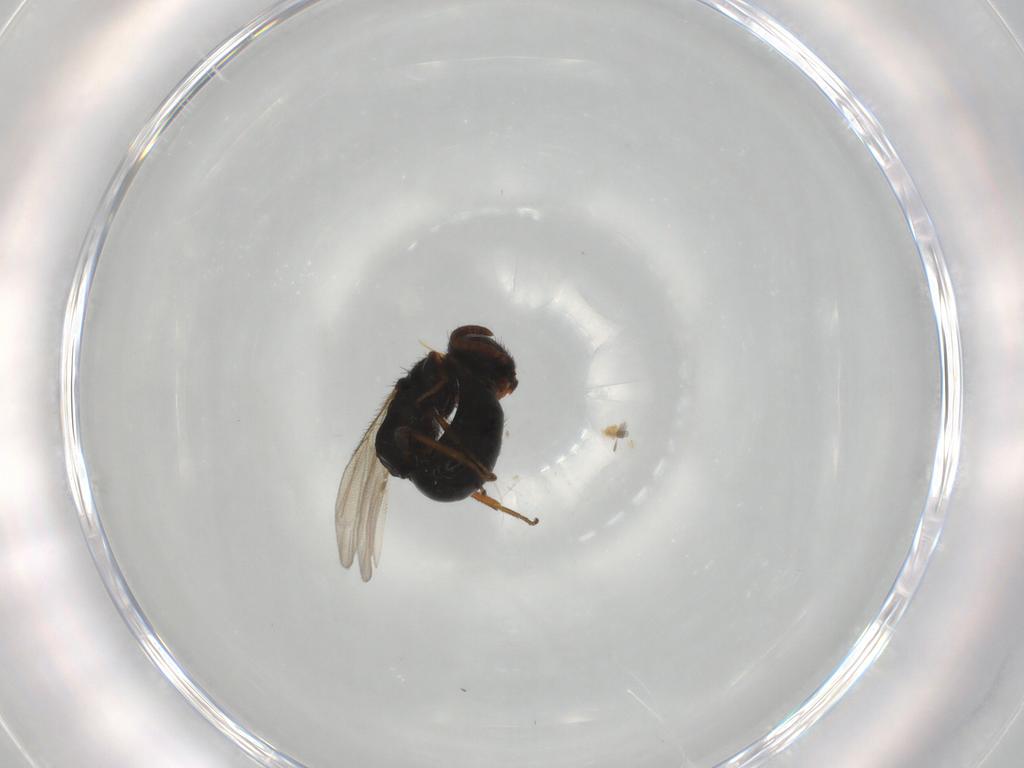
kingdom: Animalia
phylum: Arthropoda
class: Insecta
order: Hymenoptera
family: Bethylidae
